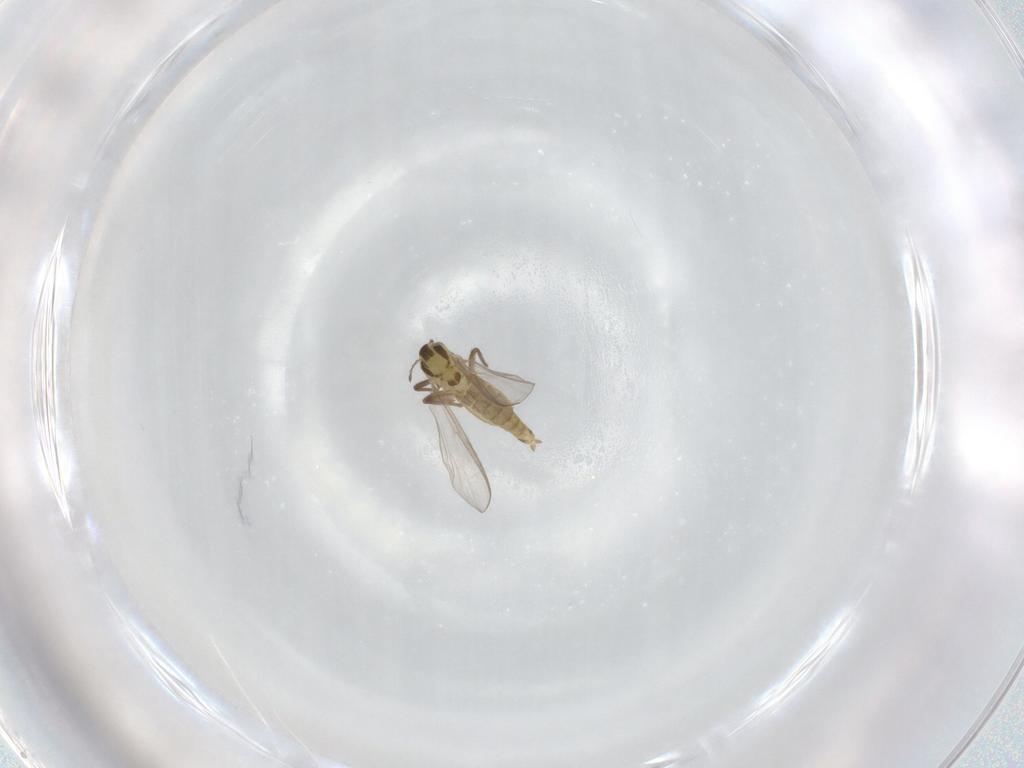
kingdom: Animalia
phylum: Arthropoda
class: Insecta
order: Diptera
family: Chironomidae
